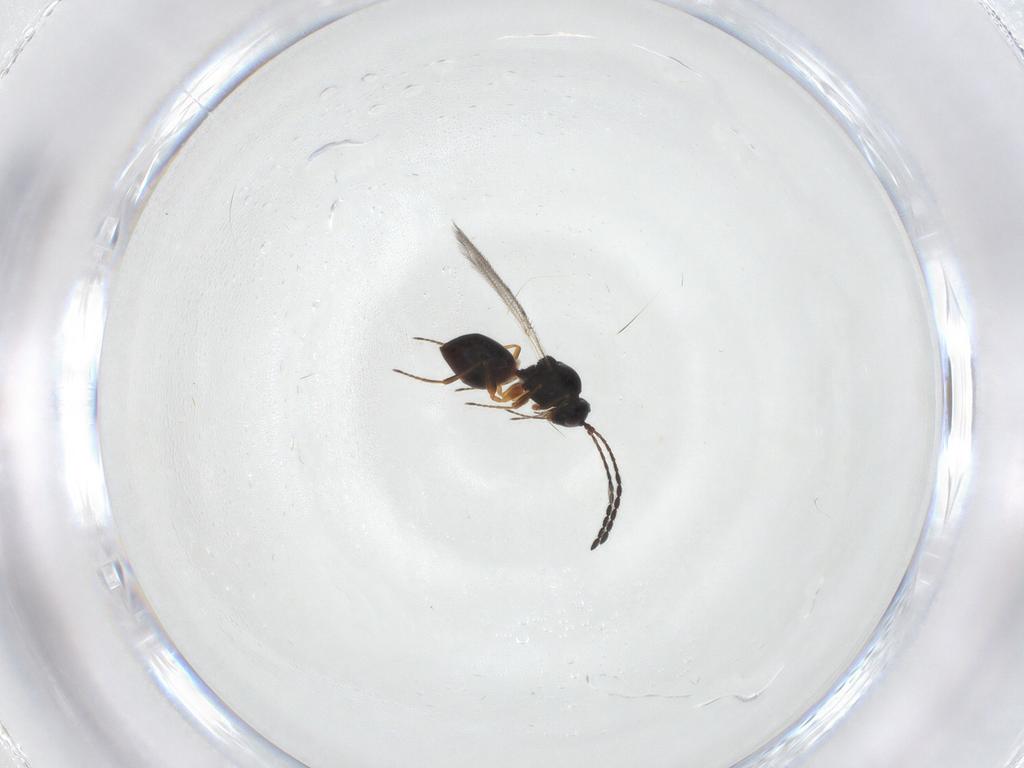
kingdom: Animalia
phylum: Arthropoda
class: Insecta
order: Hymenoptera
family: Figitidae
